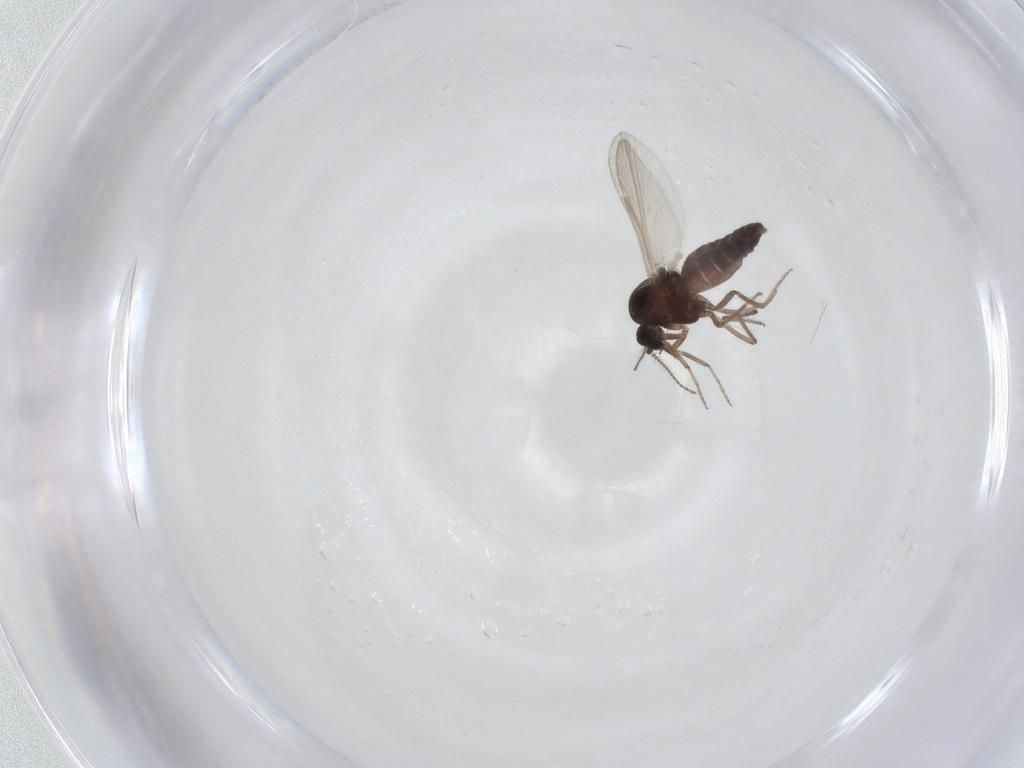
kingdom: Animalia
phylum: Arthropoda
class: Insecta
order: Diptera
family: Ceratopogonidae
